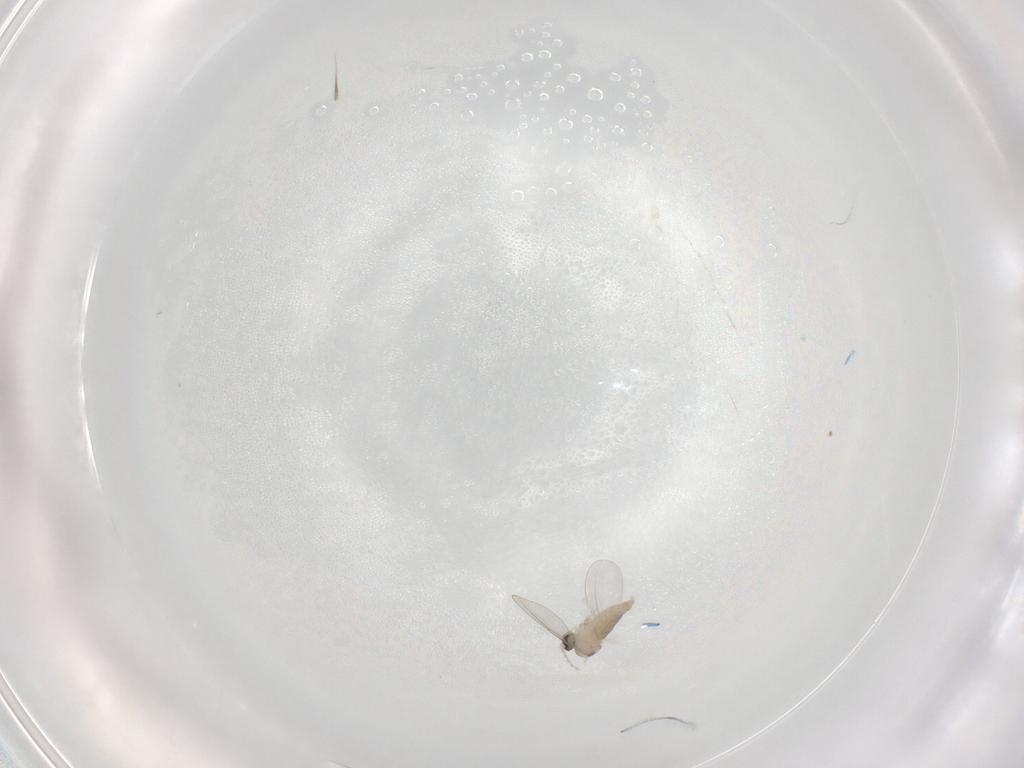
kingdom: Animalia
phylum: Arthropoda
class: Insecta
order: Diptera
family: Cecidomyiidae
